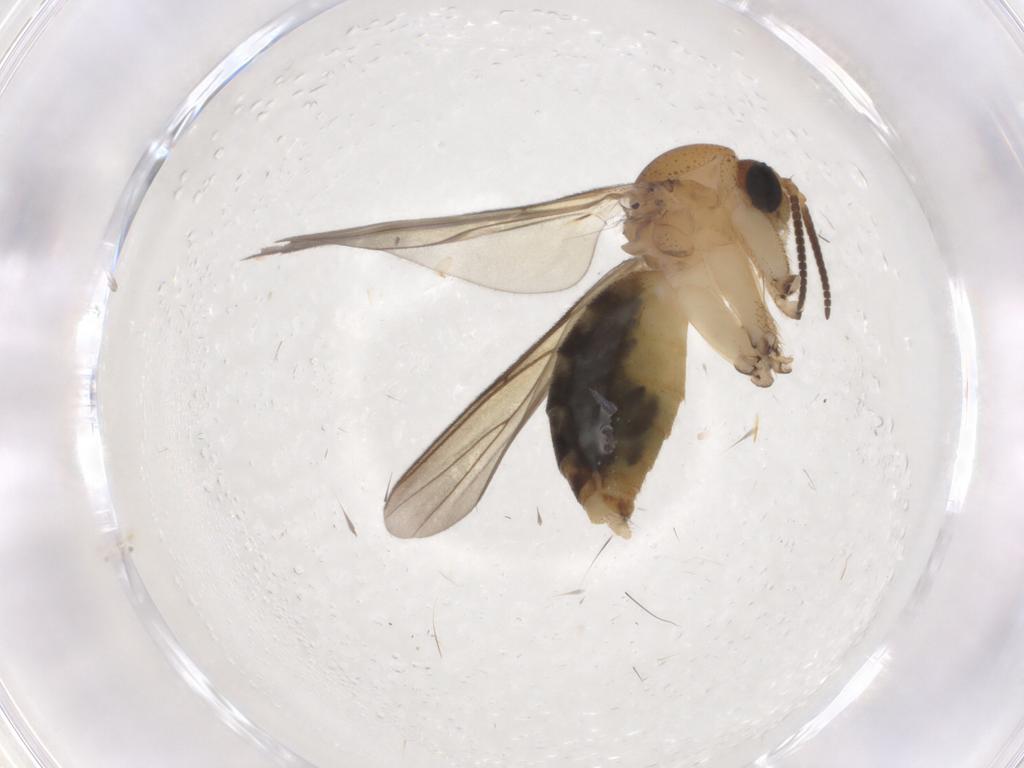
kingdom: Animalia
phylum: Arthropoda
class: Insecta
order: Diptera
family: Mycetophilidae
